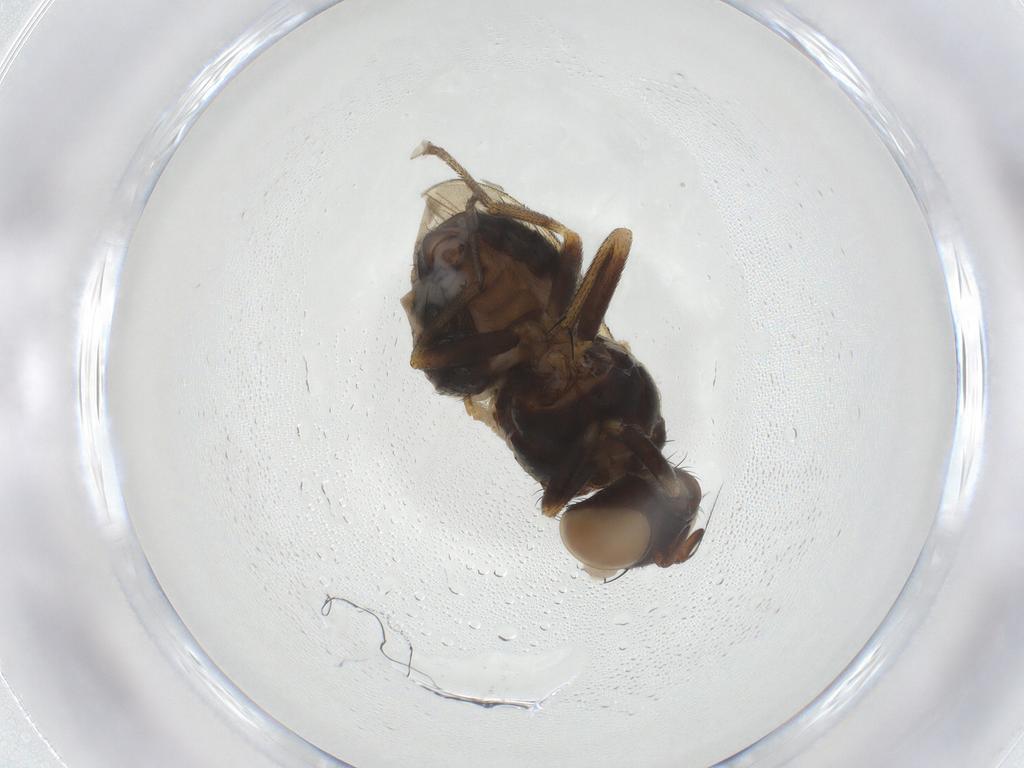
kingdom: Animalia
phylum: Arthropoda
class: Insecta
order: Diptera
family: Lauxaniidae
